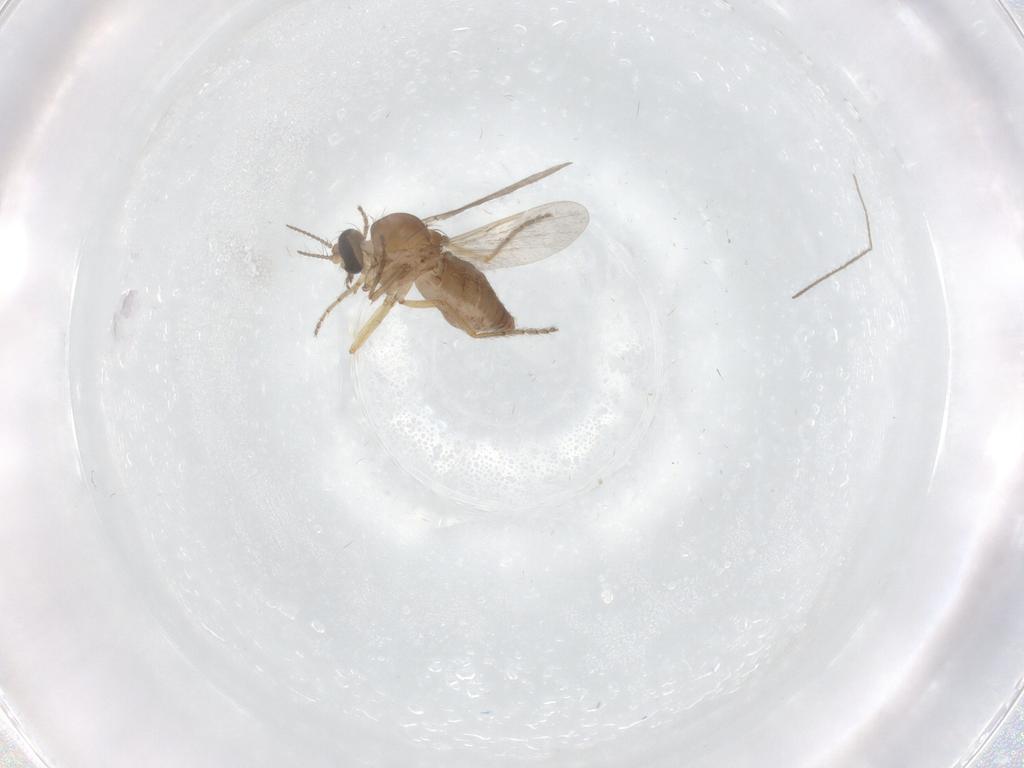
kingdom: Animalia
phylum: Arthropoda
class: Insecta
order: Diptera
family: Ceratopogonidae
